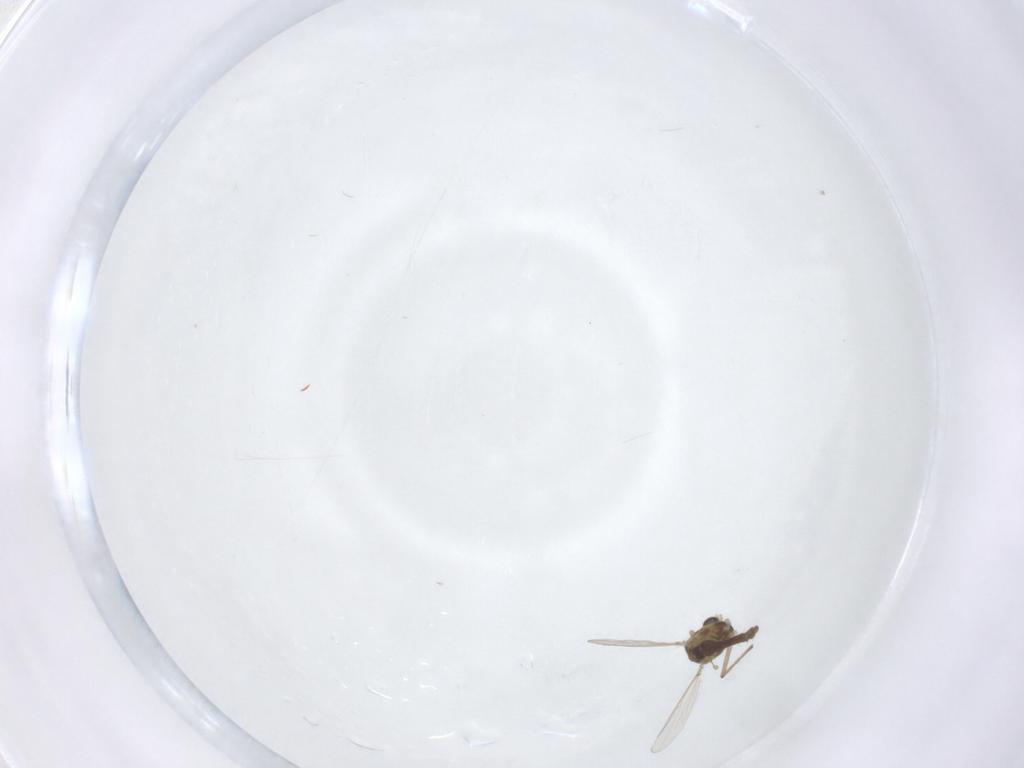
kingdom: Animalia
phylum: Arthropoda
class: Insecta
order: Diptera
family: Chironomidae
